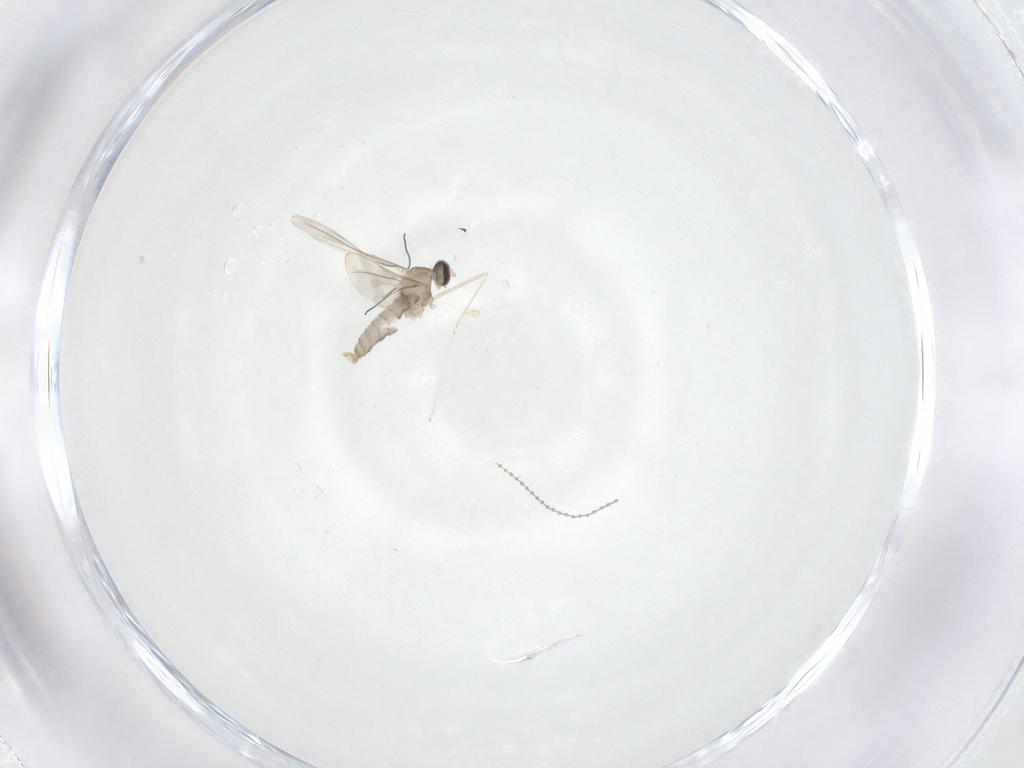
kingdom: Animalia
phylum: Arthropoda
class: Insecta
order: Diptera
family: Cecidomyiidae
